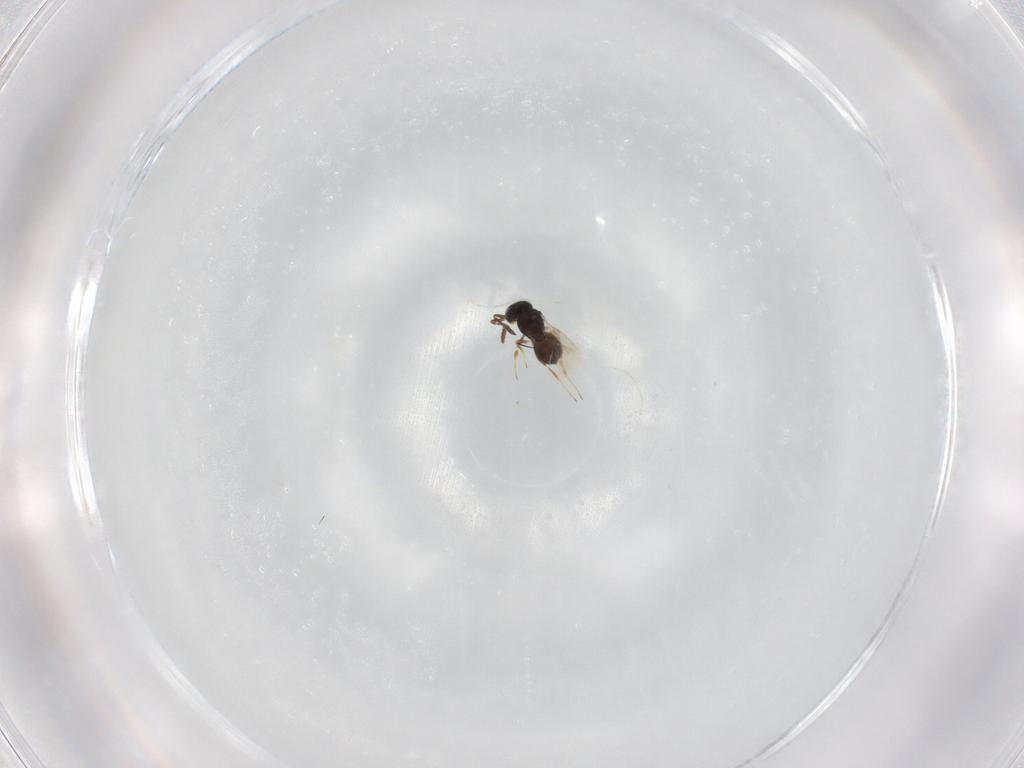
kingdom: Animalia
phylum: Arthropoda
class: Insecta
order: Hymenoptera
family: Scelionidae
